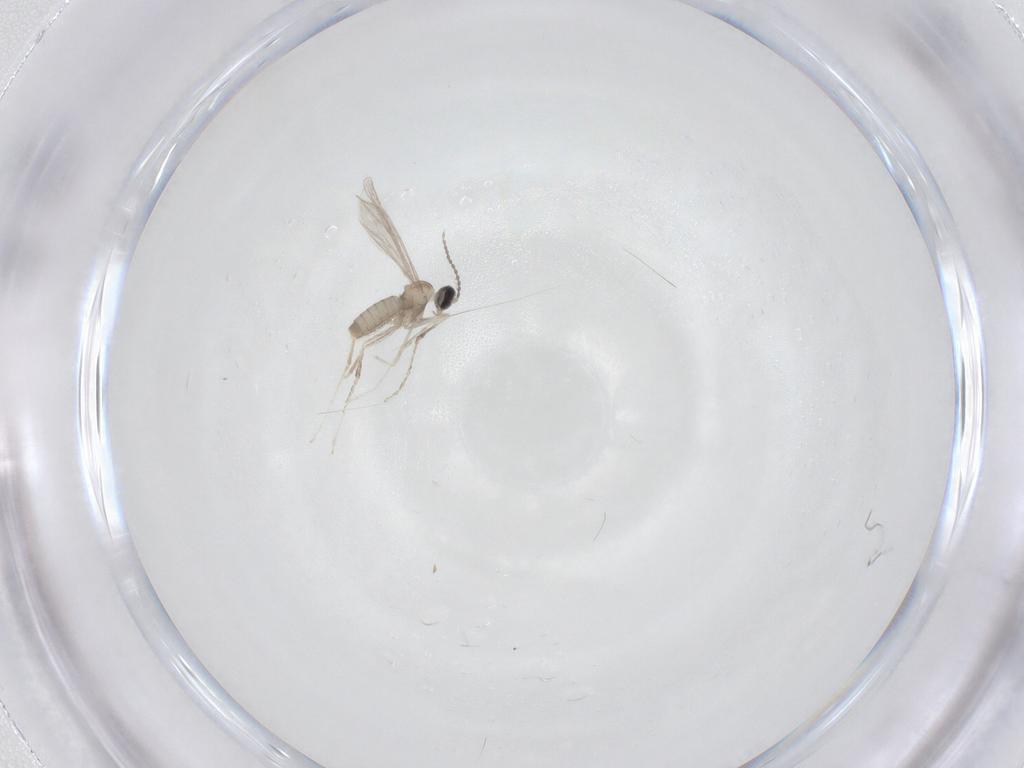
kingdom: Animalia
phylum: Arthropoda
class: Insecta
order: Diptera
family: Cecidomyiidae
